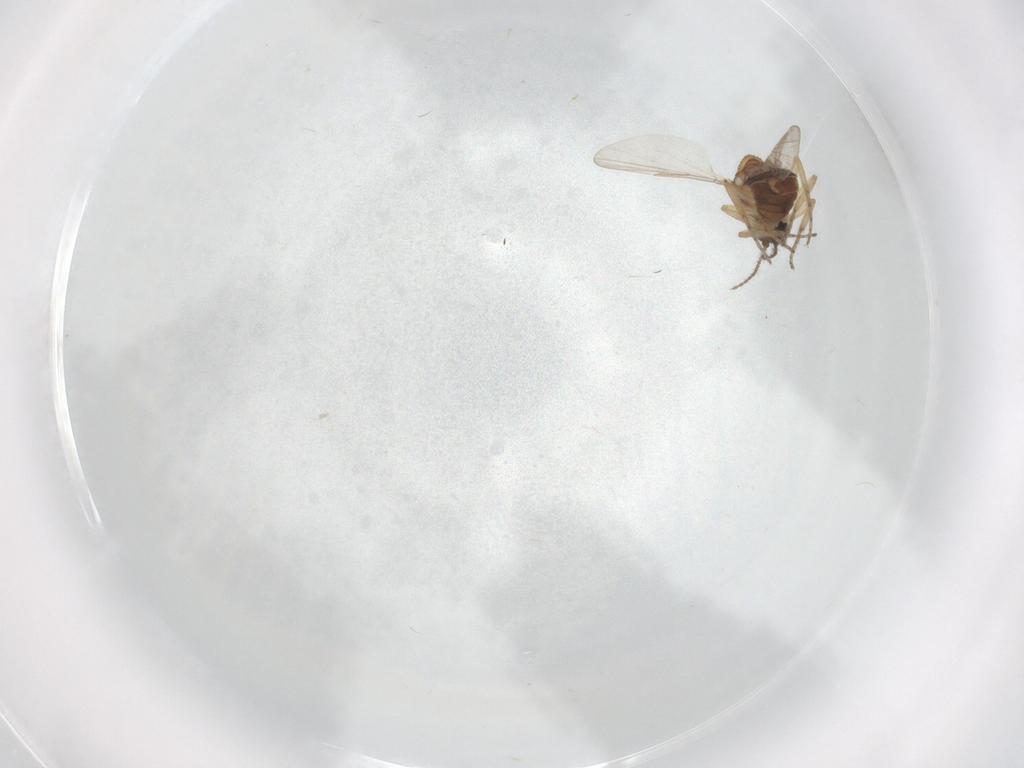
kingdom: Animalia
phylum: Arthropoda
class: Insecta
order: Diptera
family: Ceratopogonidae
